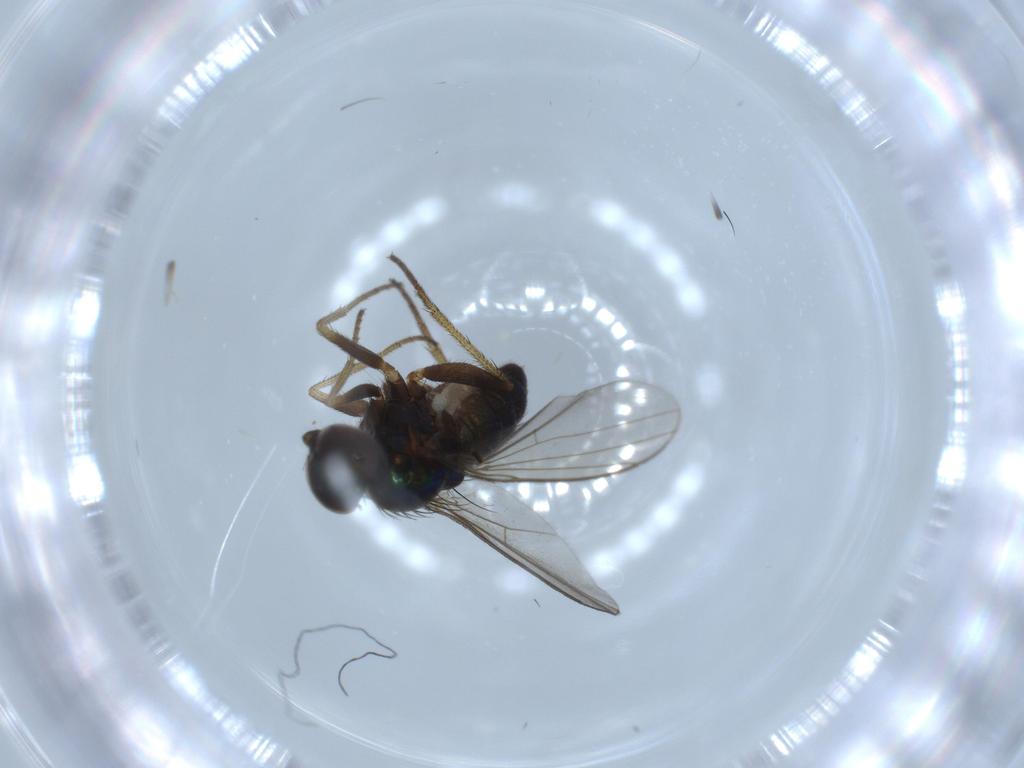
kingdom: Animalia
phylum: Arthropoda
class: Insecta
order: Diptera
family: Dolichopodidae
